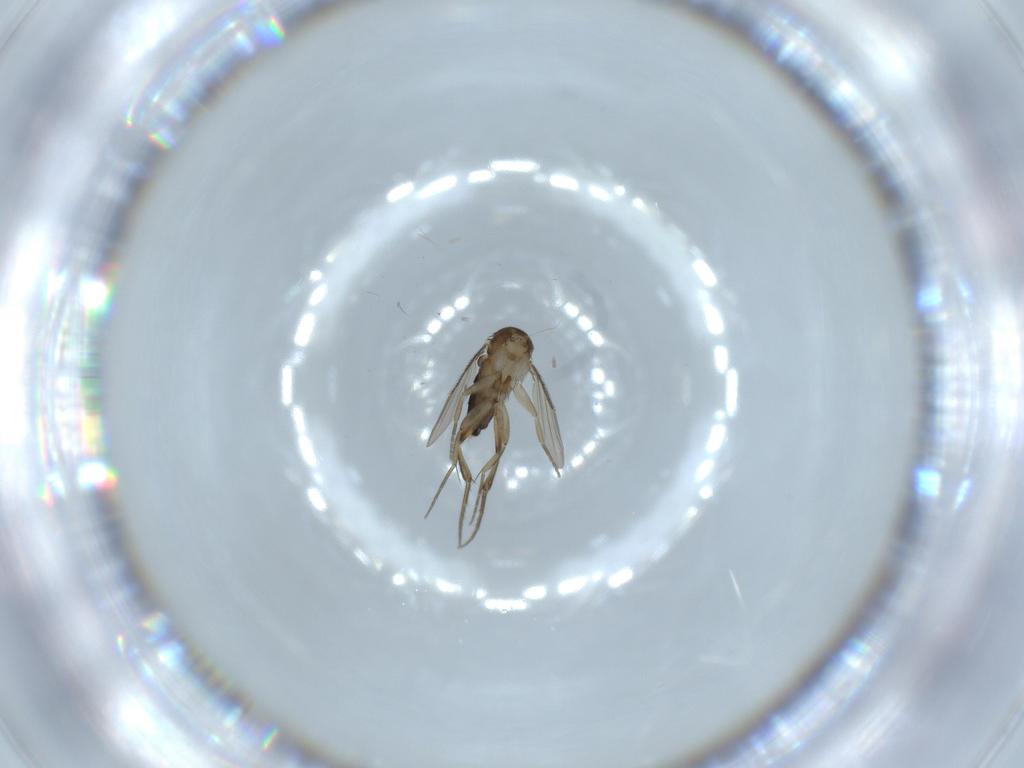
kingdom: Animalia
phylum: Arthropoda
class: Insecta
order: Diptera
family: Phoridae
